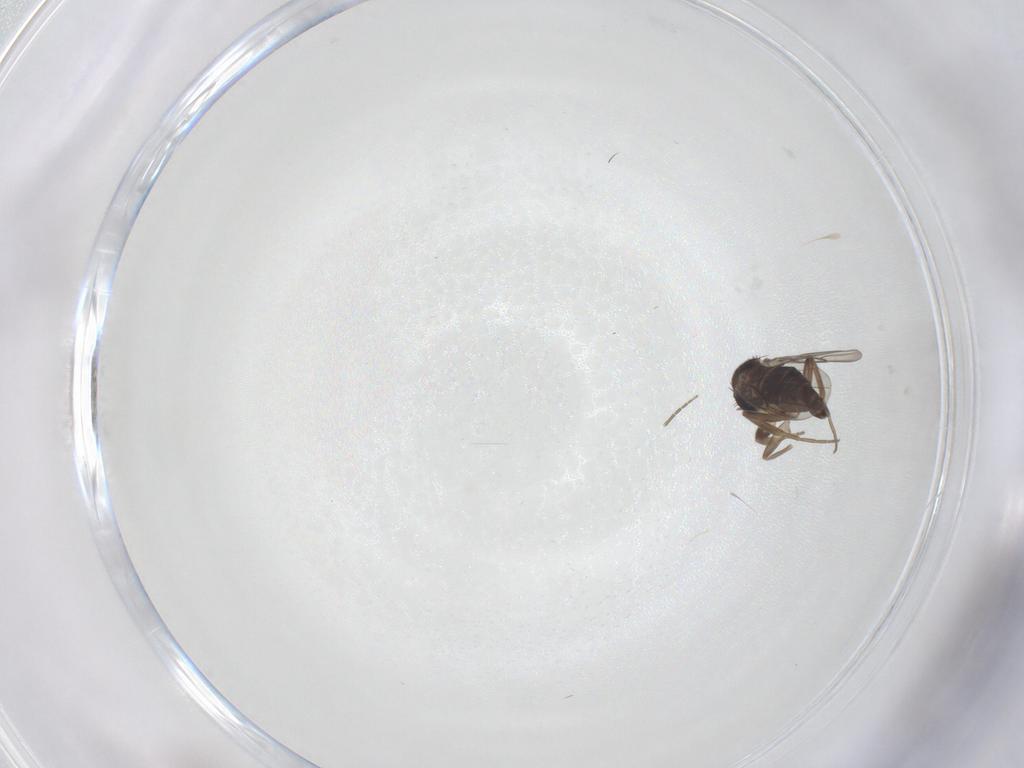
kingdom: Animalia
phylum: Arthropoda
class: Insecta
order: Diptera
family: Phoridae
